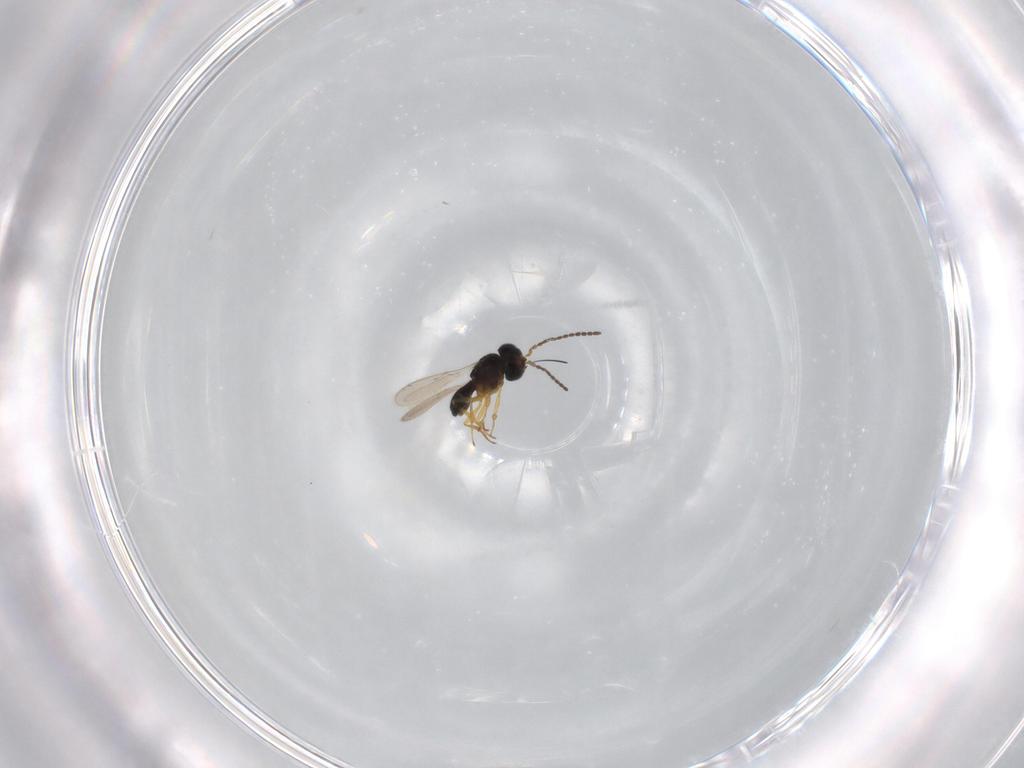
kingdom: Animalia
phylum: Arthropoda
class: Insecta
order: Hymenoptera
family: Scelionidae
